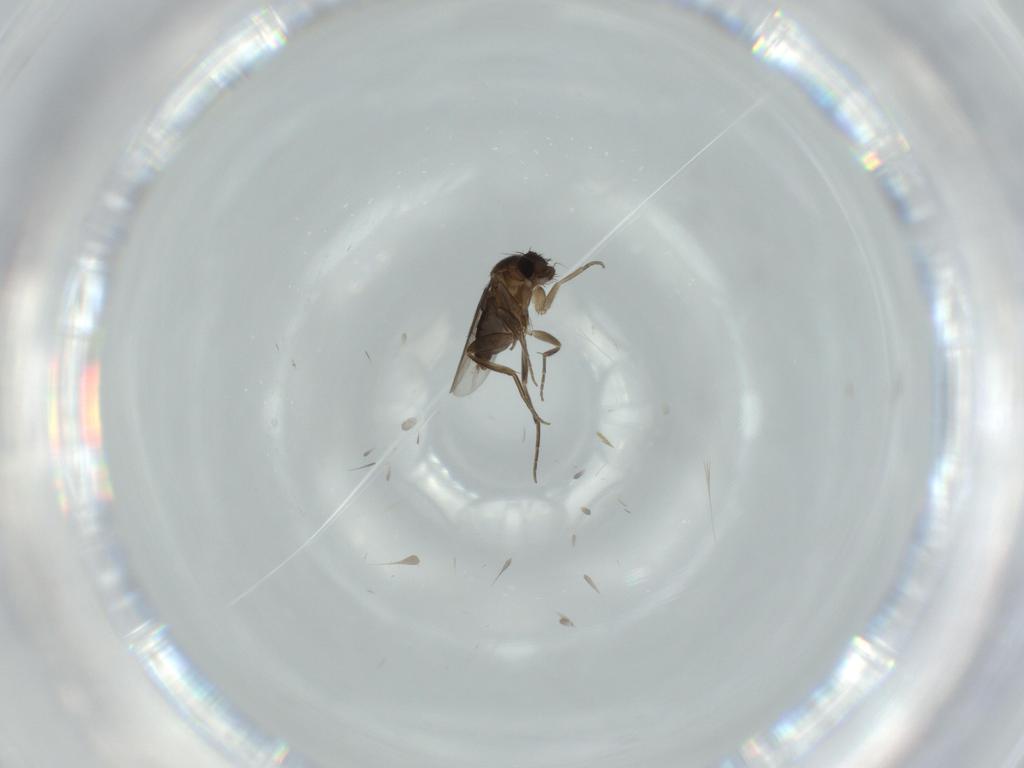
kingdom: Animalia
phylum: Arthropoda
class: Insecta
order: Diptera
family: Phoridae
